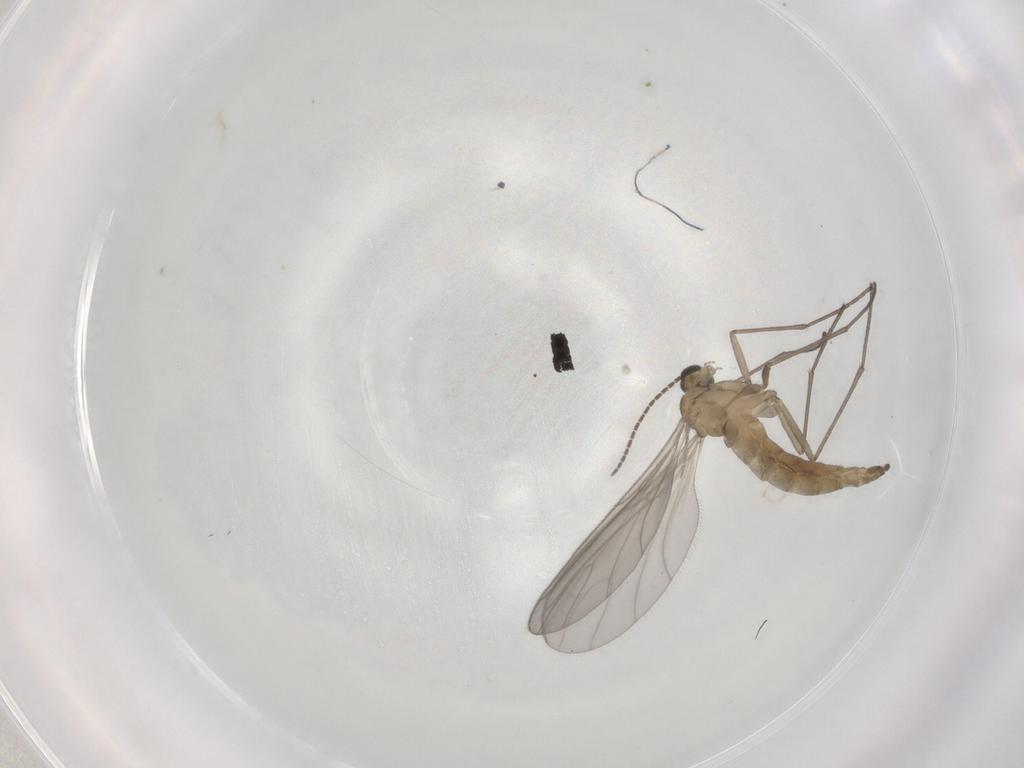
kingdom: Animalia
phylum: Arthropoda
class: Insecta
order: Diptera
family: Sciaridae
